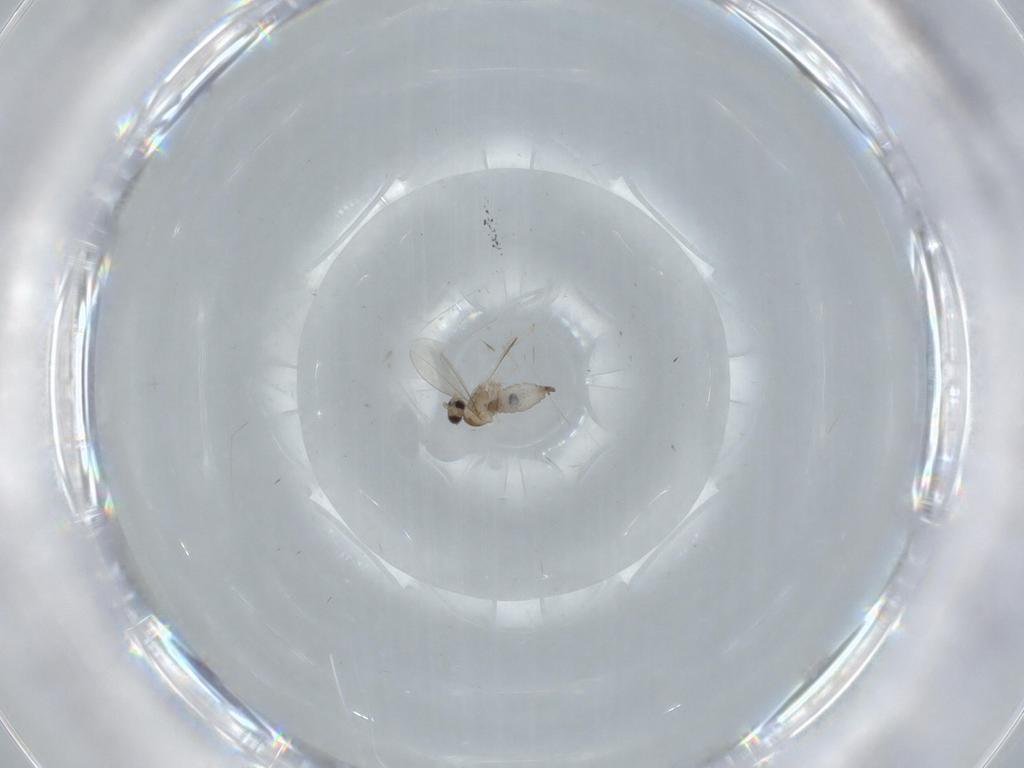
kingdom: Animalia
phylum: Arthropoda
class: Insecta
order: Diptera
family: Cecidomyiidae
